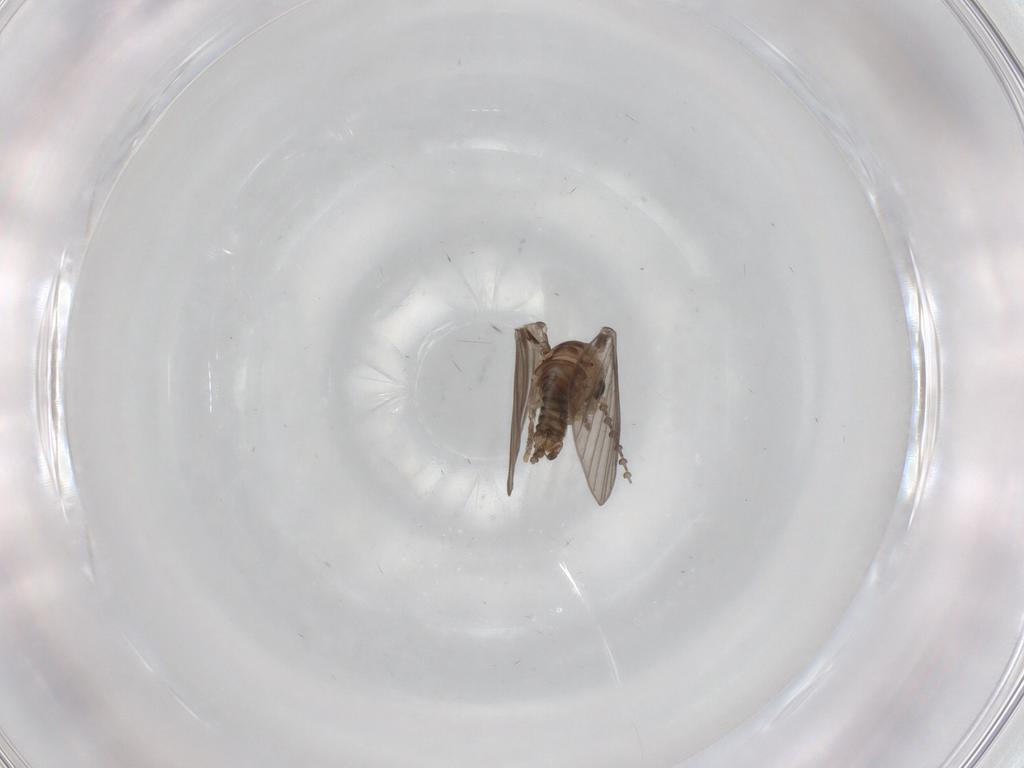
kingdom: Animalia
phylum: Arthropoda
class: Insecta
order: Diptera
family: Psychodidae
